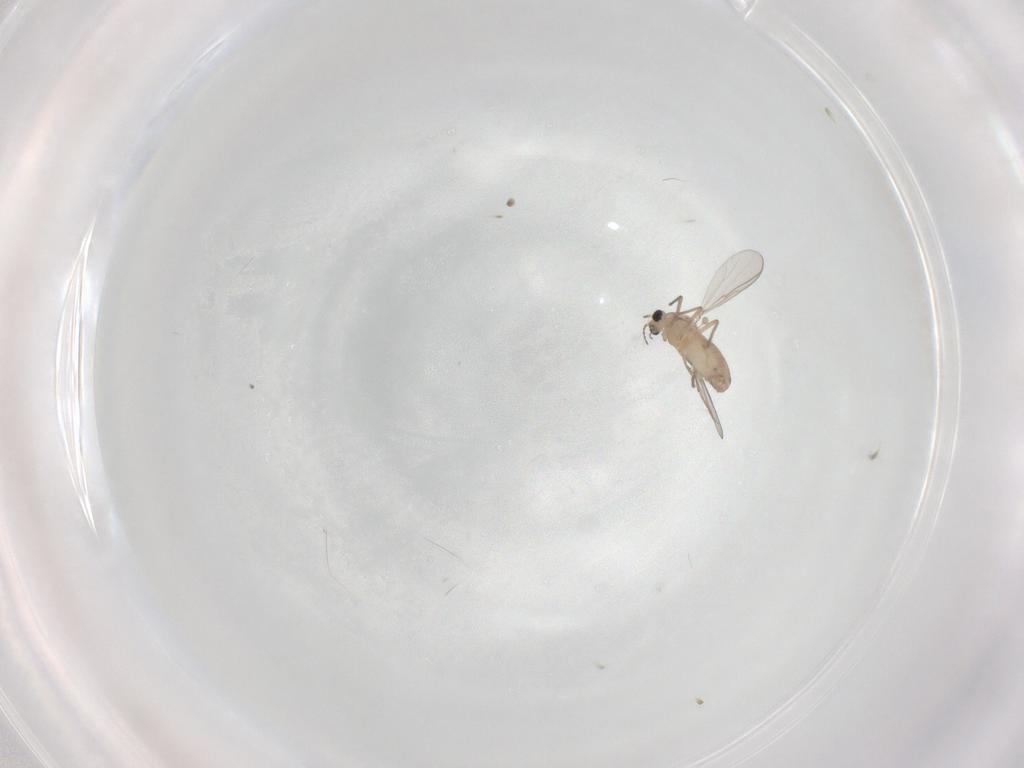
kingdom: Animalia
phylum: Arthropoda
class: Insecta
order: Diptera
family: Chironomidae
